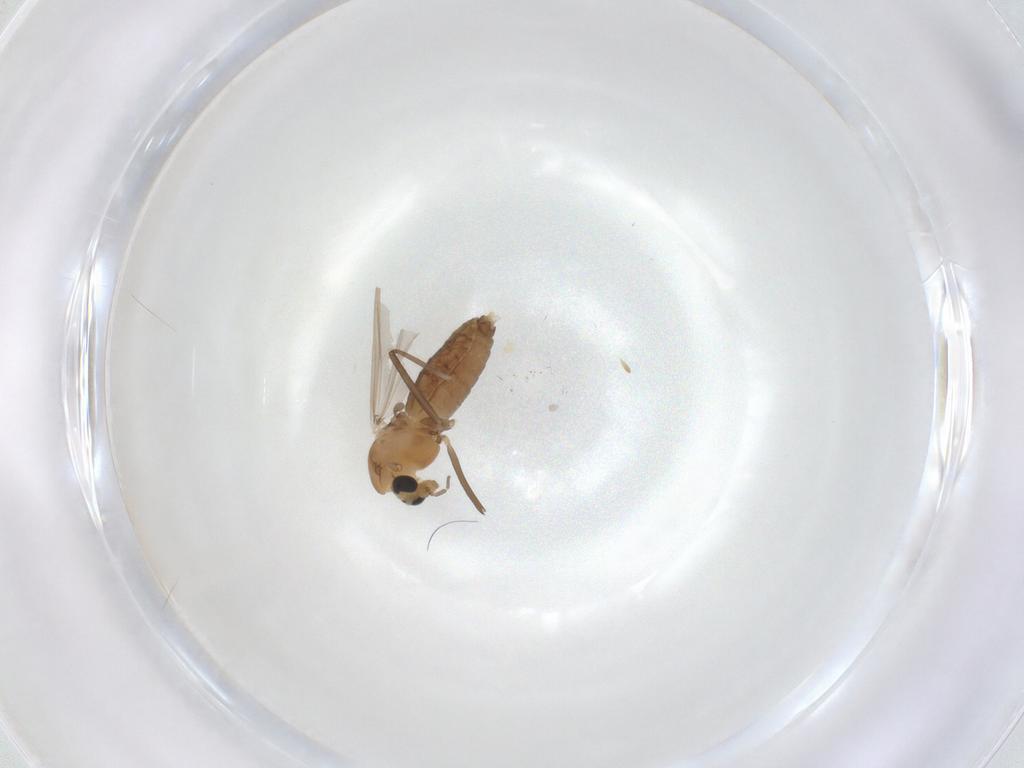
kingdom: Animalia
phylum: Arthropoda
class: Insecta
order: Diptera
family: Chironomidae
